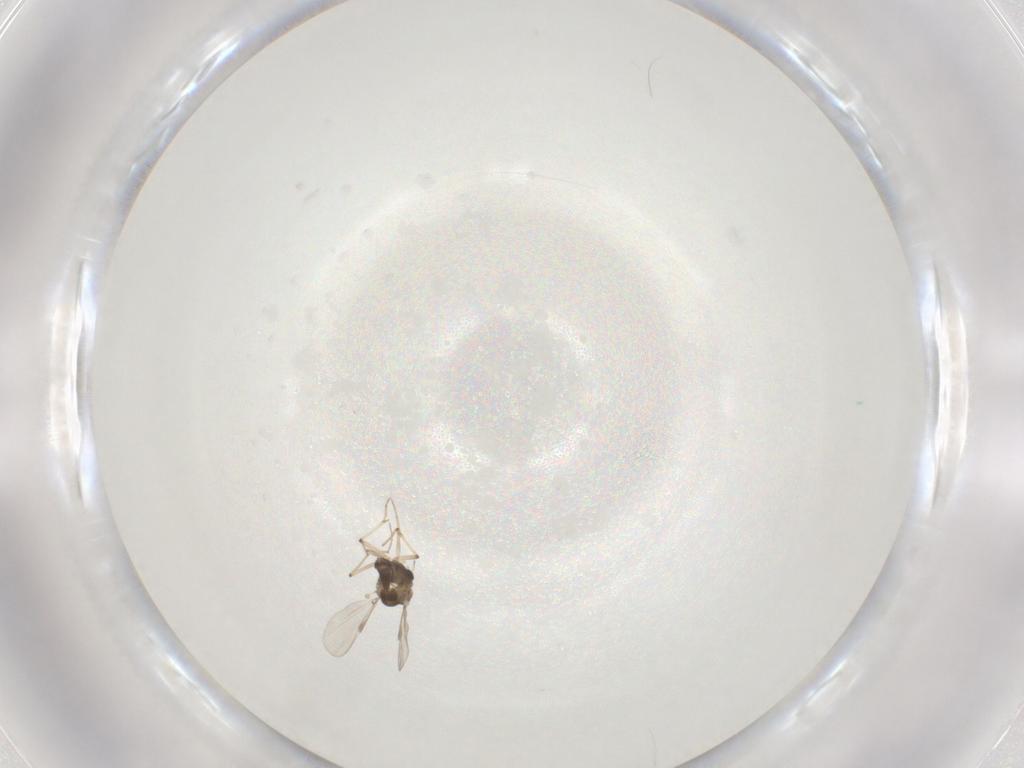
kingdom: Animalia
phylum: Arthropoda
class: Insecta
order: Diptera
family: Chironomidae
